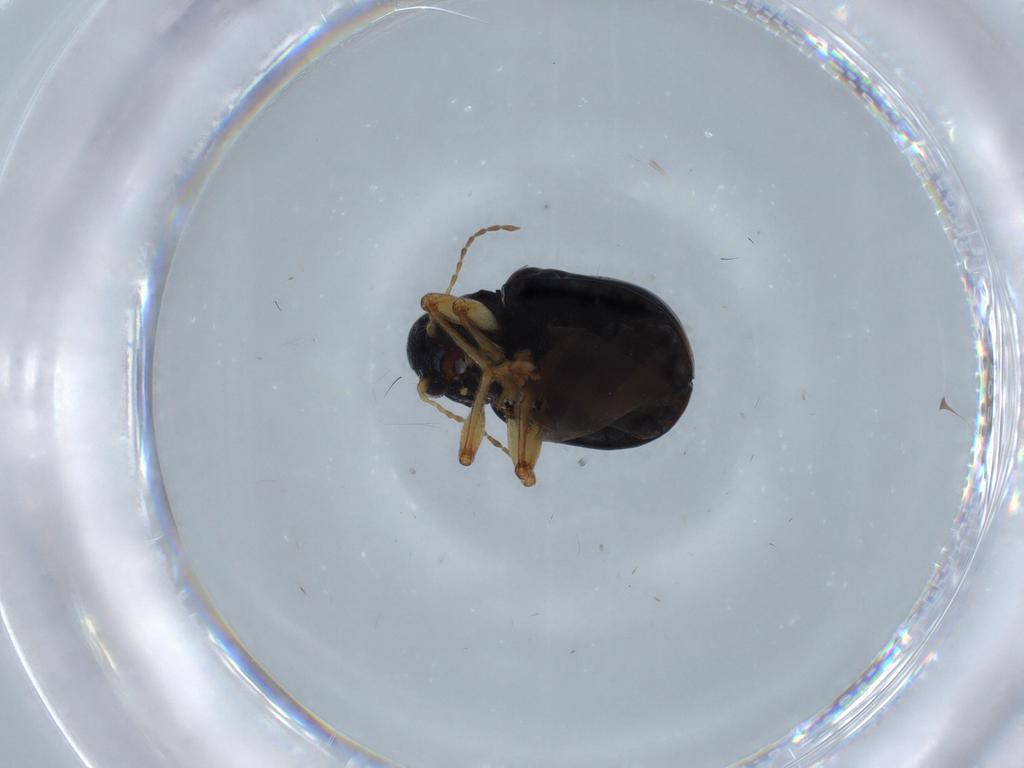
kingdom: Animalia
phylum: Arthropoda
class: Insecta
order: Coleoptera
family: Chrysomelidae
